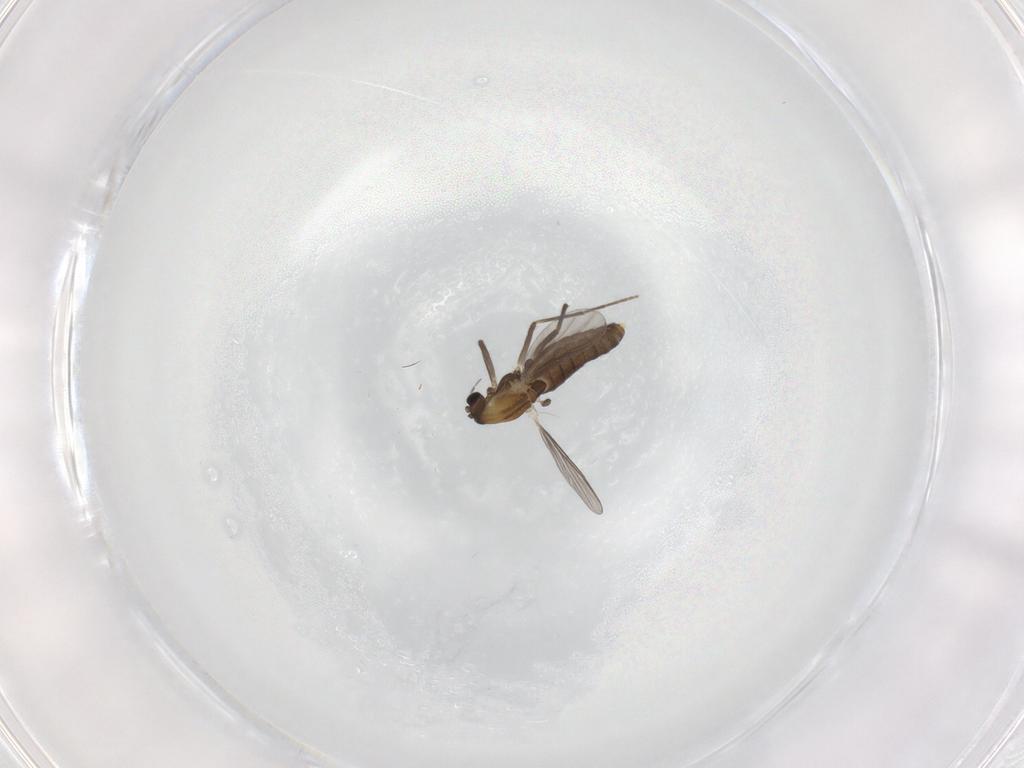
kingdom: Animalia
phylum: Arthropoda
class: Insecta
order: Diptera
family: Chironomidae
